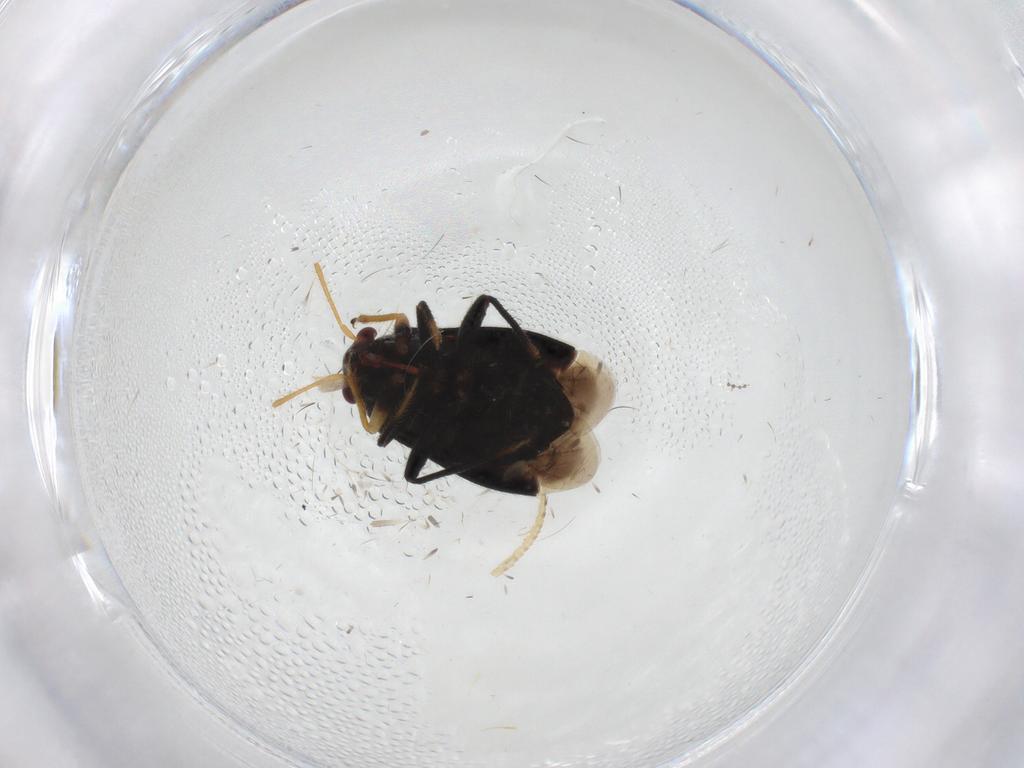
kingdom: Animalia
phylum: Arthropoda
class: Insecta
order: Hemiptera
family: Miridae
